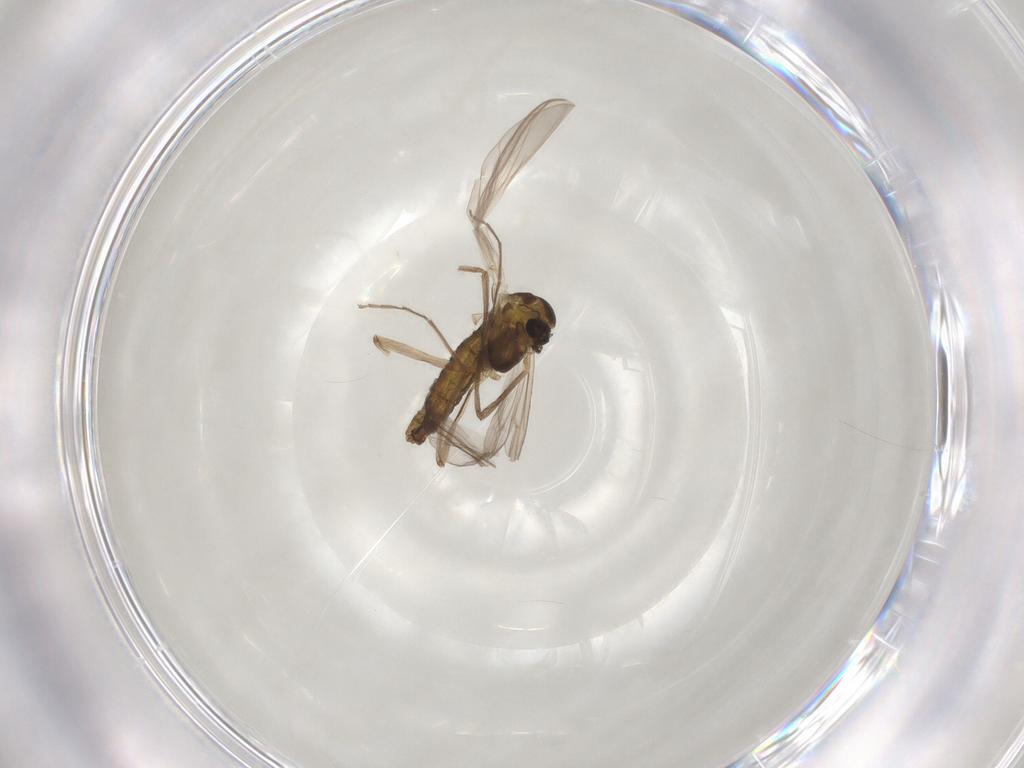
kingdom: Animalia
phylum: Arthropoda
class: Insecta
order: Diptera
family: Chironomidae
